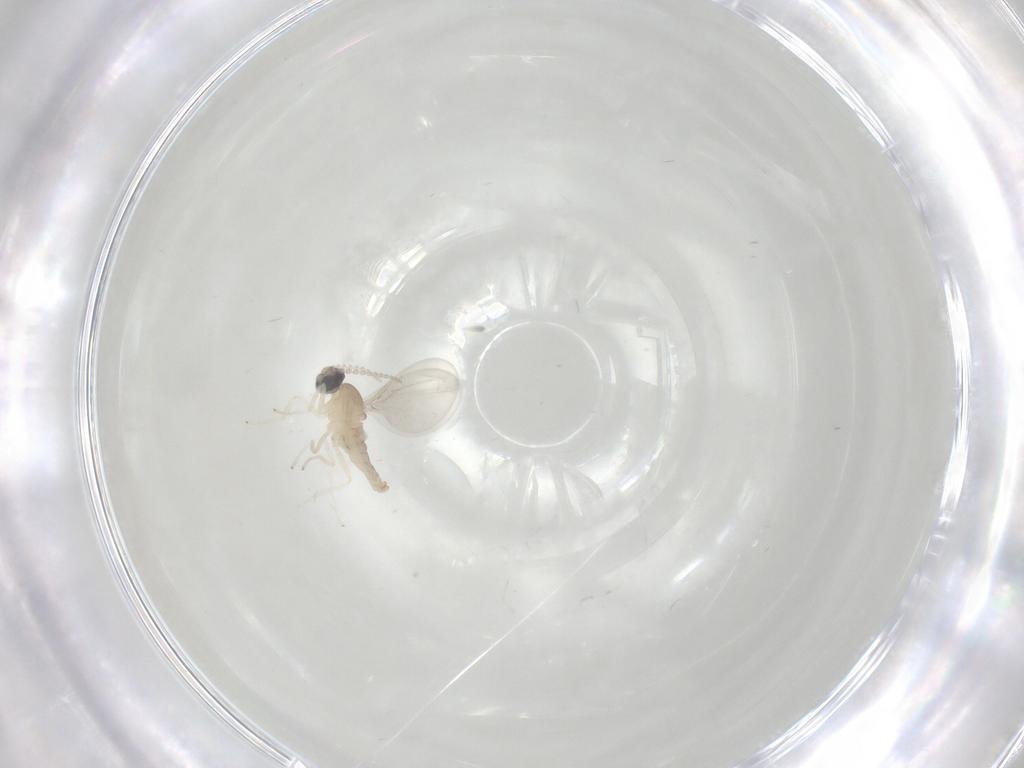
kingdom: Animalia
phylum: Arthropoda
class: Insecta
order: Diptera
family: Cecidomyiidae
